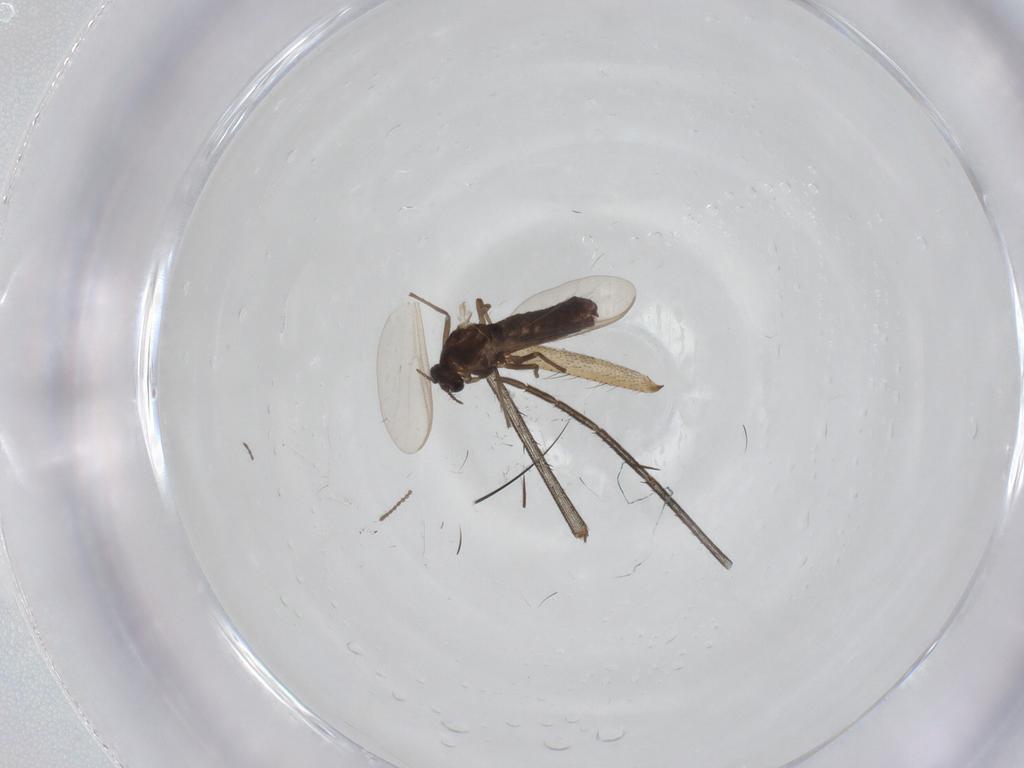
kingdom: Animalia
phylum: Arthropoda
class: Insecta
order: Diptera
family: Ceratopogonidae
